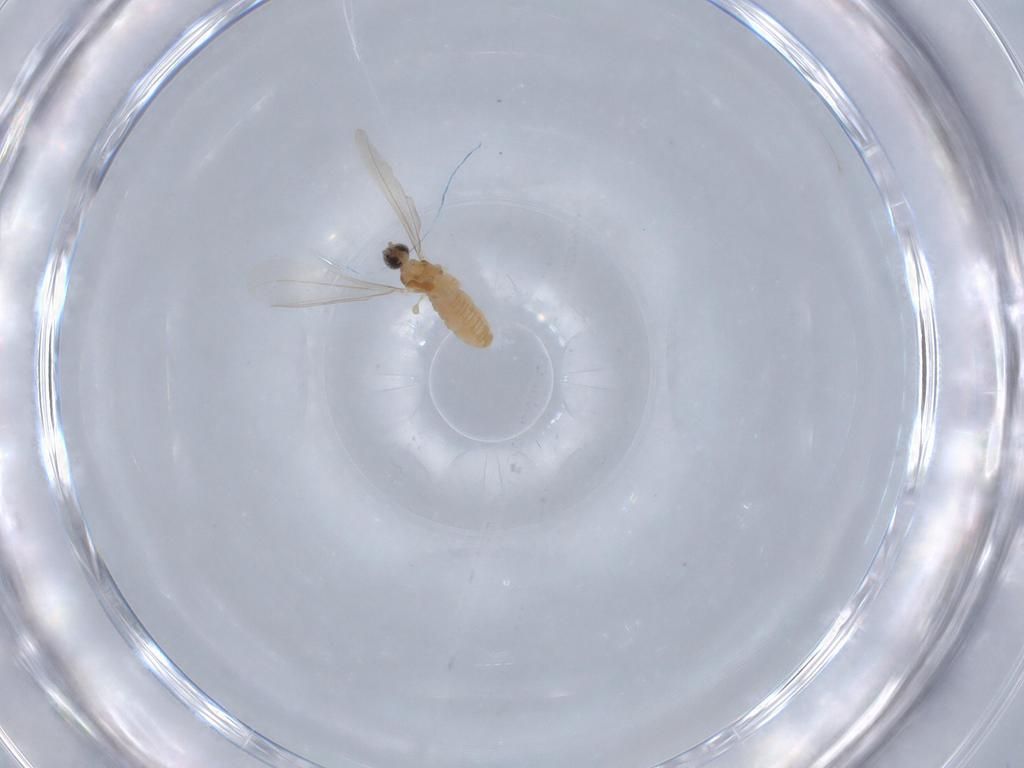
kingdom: Animalia
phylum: Arthropoda
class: Insecta
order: Diptera
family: Cecidomyiidae
